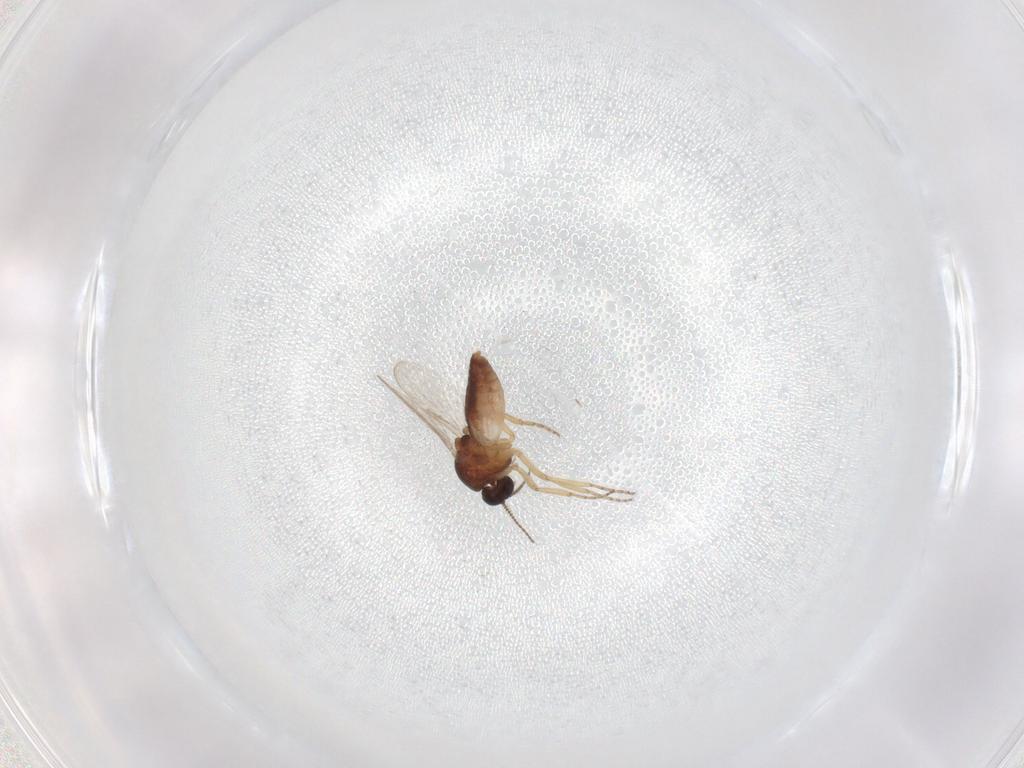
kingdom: Animalia
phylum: Arthropoda
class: Insecta
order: Diptera
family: Ceratopogonidae
